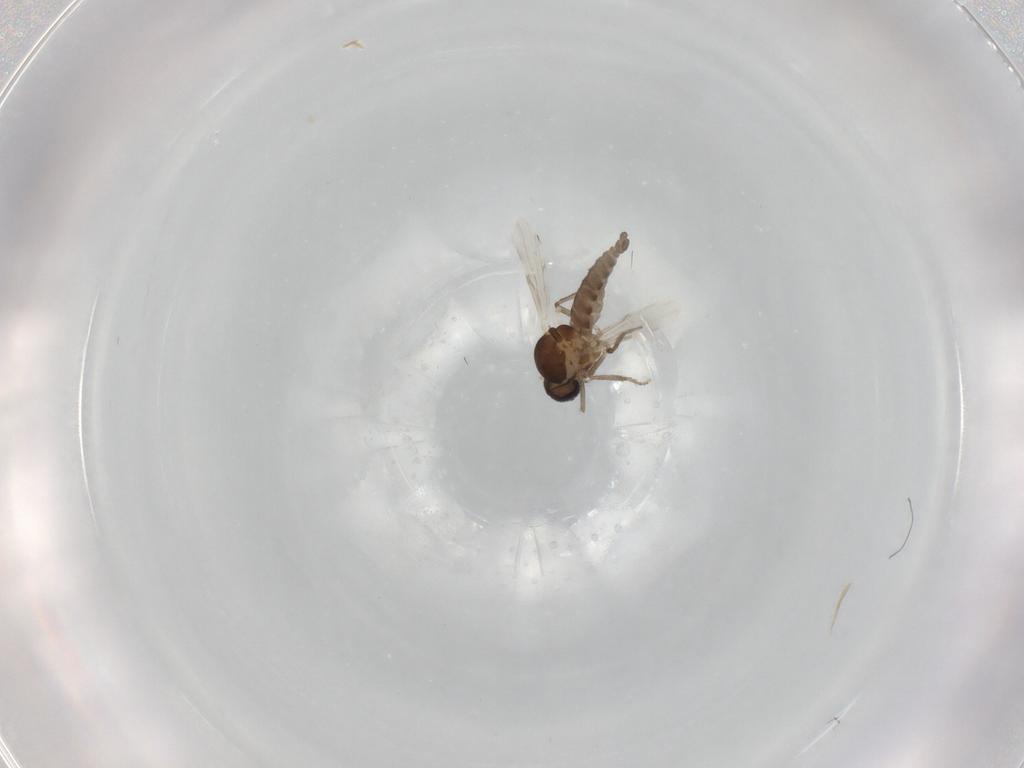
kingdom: Animalia
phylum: Arthropoda
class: Insecta
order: Diptera
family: Ceratopogonidae
